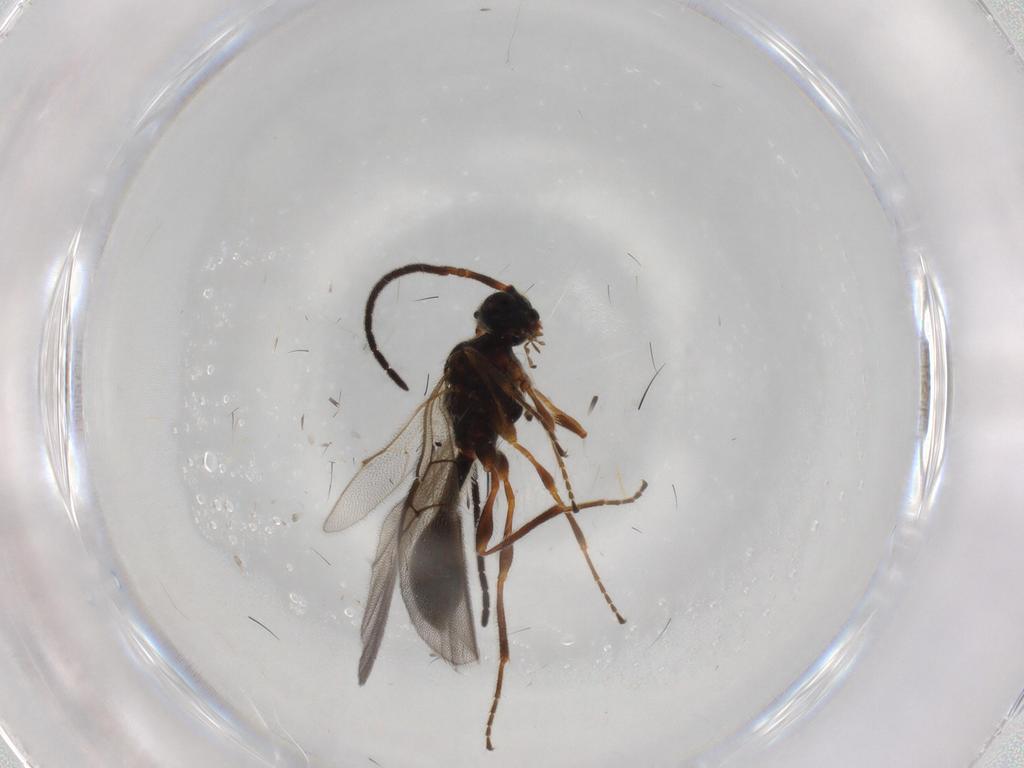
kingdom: Animalia
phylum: Arthropoda
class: Insecta
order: Hymenoptera
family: Diapriidae
